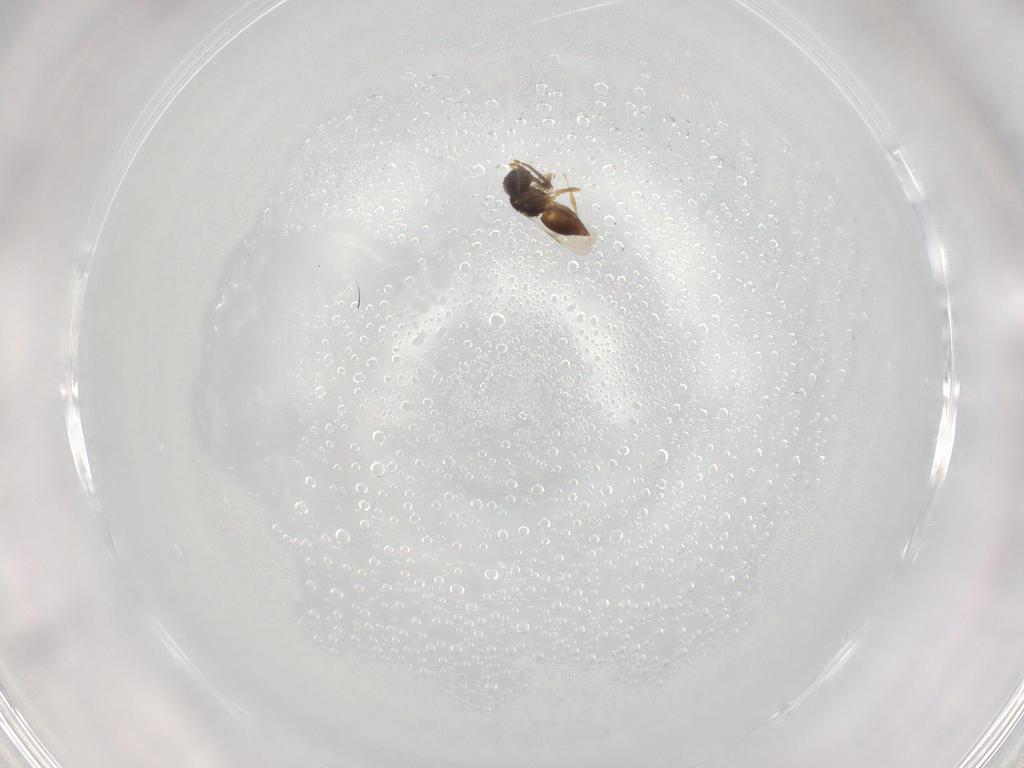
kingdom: Animalia
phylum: Arthropoda
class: Insecta
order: Hymenoptera
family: Ceraphronidae
